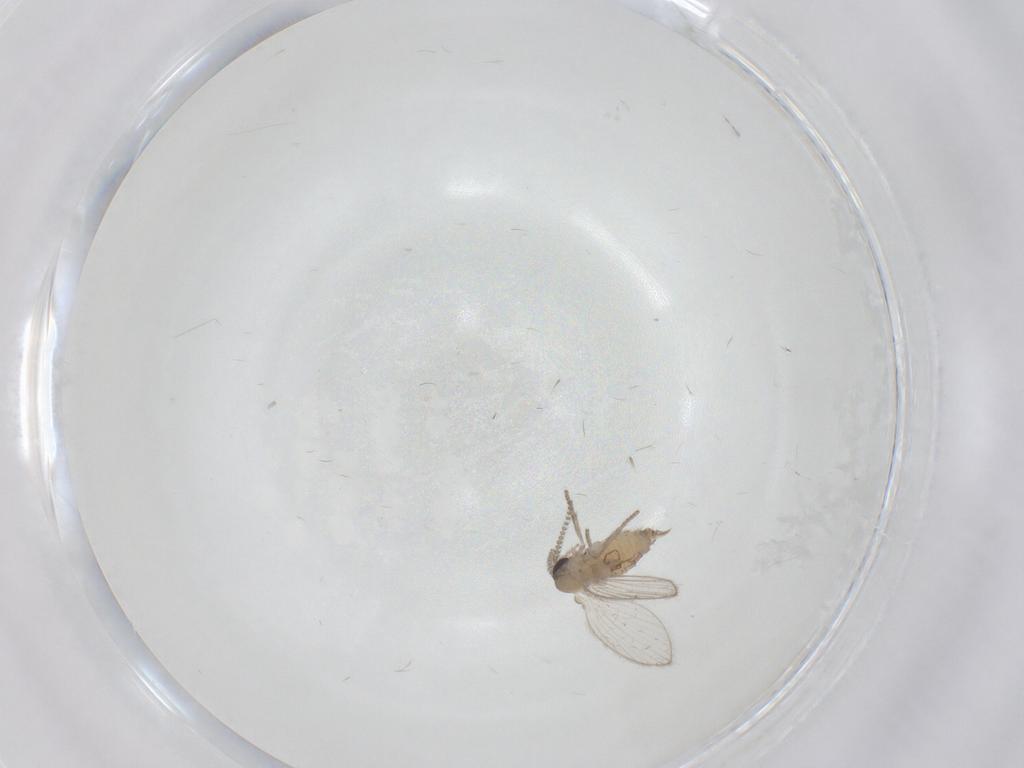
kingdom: Animalia
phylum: Arthropoda
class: Insecta
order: Diptera
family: Psychodidae
